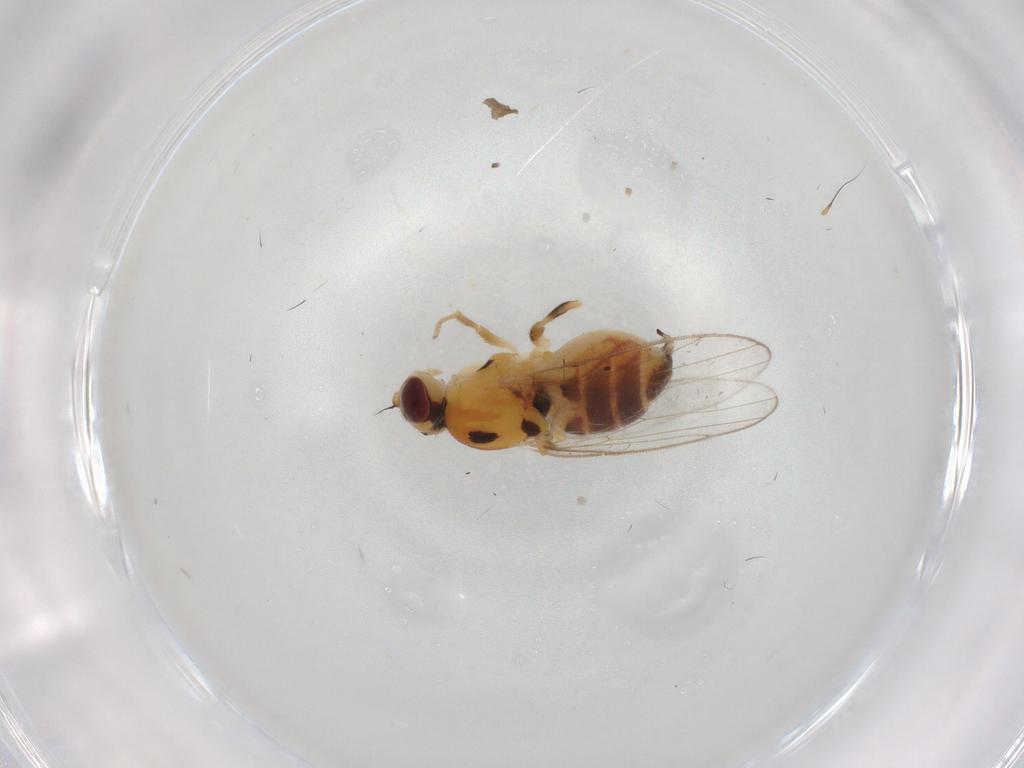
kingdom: Animalia
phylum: Arthropoda
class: Insecta
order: Diptera
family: Chloropidae
